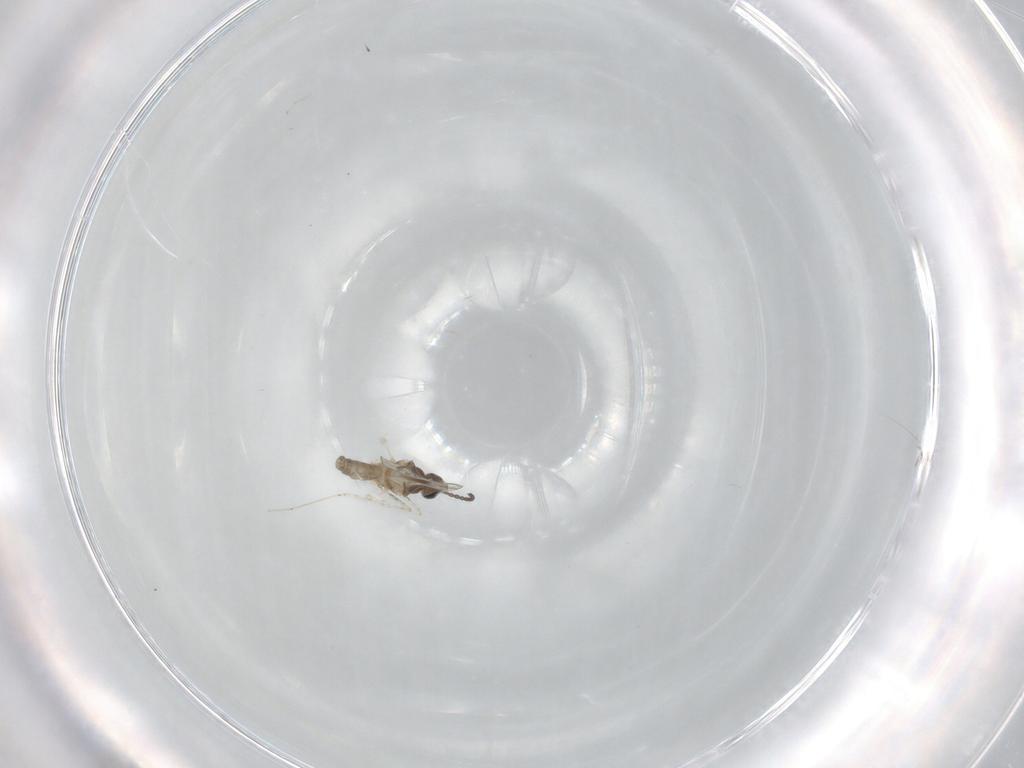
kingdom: Animalia
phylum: Arthropoda
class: Insecta
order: Diptera
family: Cecidomyiidae
